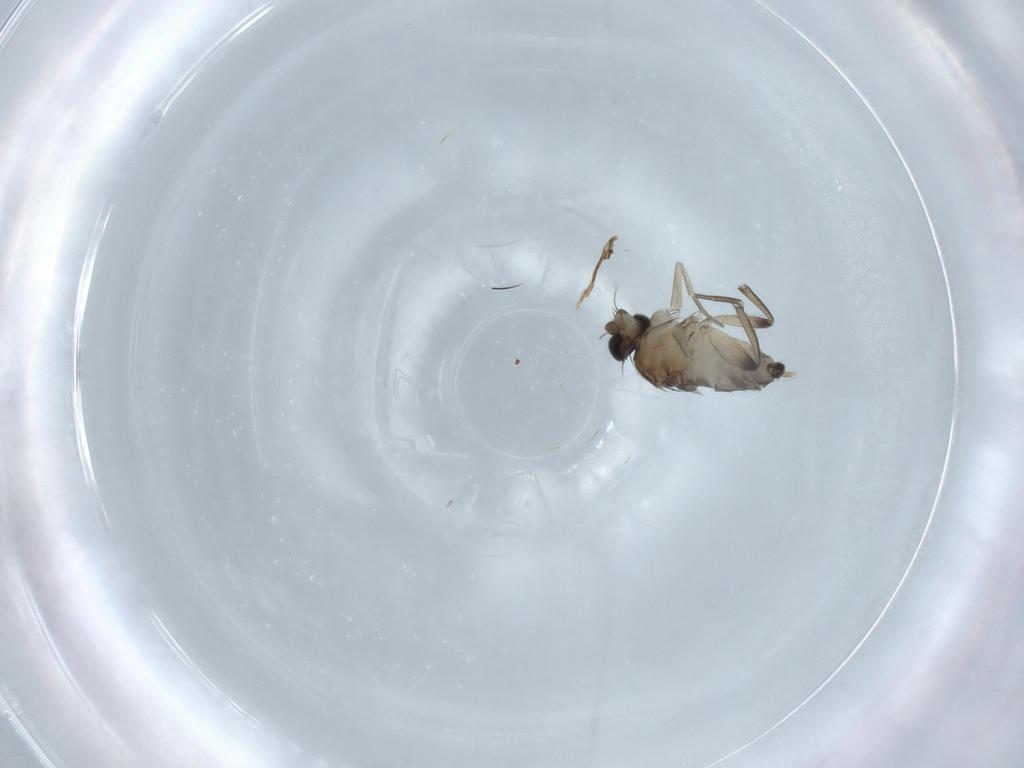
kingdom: Animalia
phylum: Arthropoda
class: Insecta
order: Diptera
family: Phoridae
